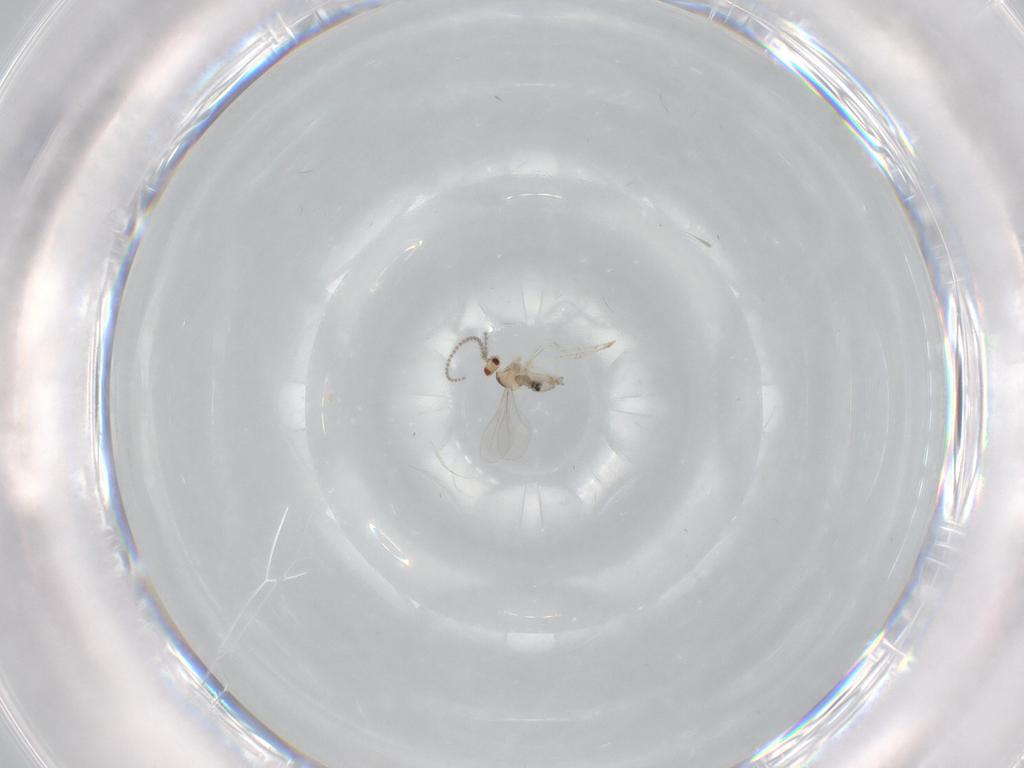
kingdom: Animalia
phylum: Arthropoda
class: Insecta
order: Diptera
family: Cecidomyiidae
